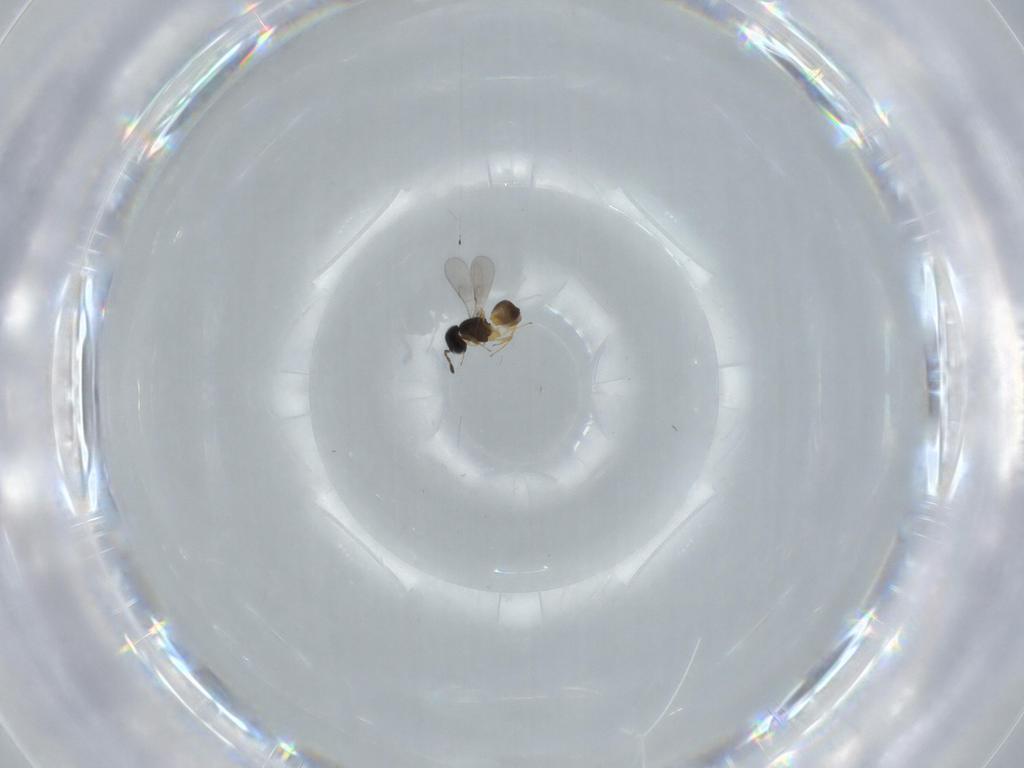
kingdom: Animalia
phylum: Arthropoda
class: Insecta
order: Hymenoptera
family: Scelionidae
